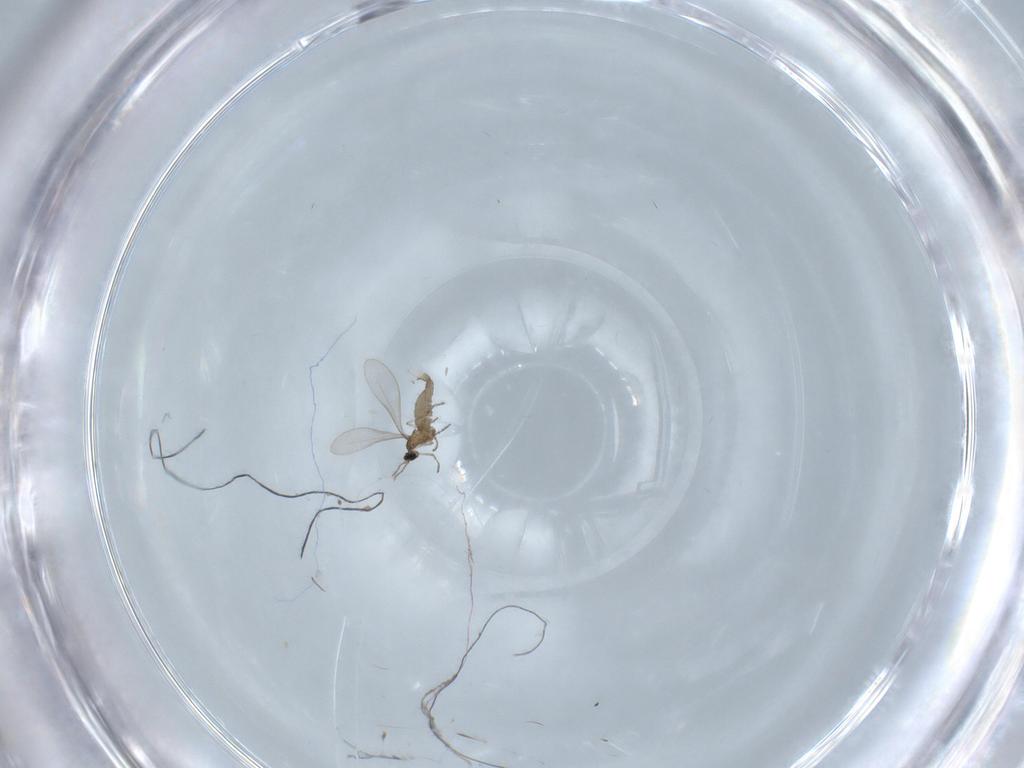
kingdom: Animalia
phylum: Arthropoda
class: Insecta
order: Diptera
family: Cecidomyiidae
